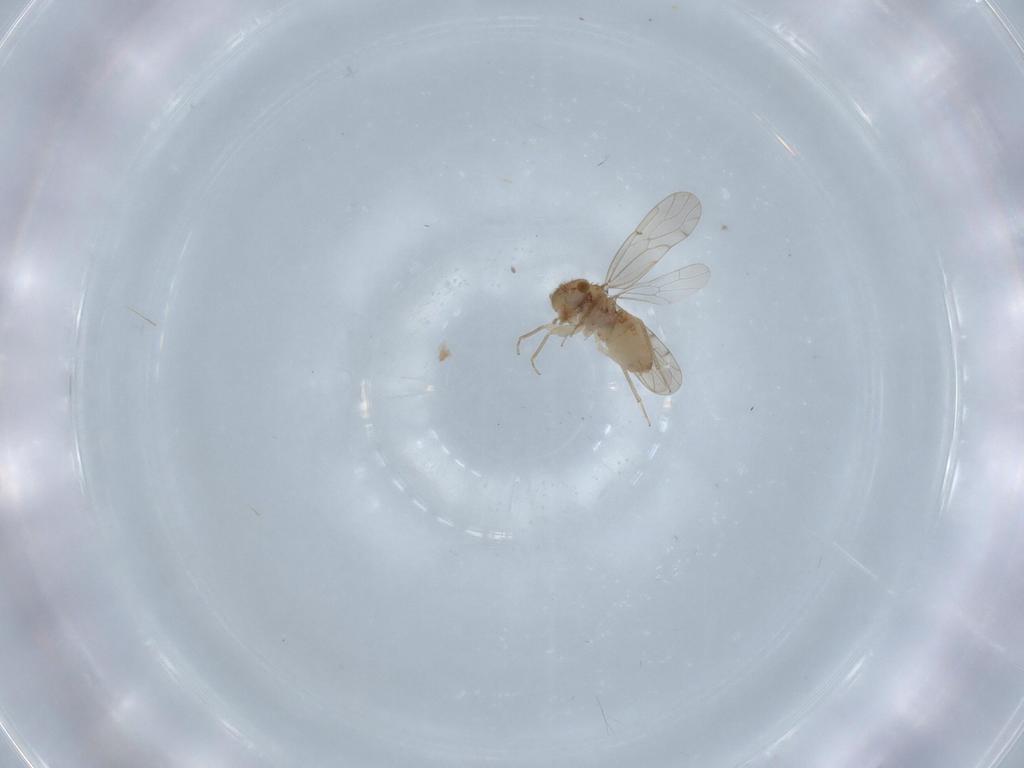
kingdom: Animalia
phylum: Arthropoda
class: Insecta
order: Psocodea
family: Ectopsocidae
